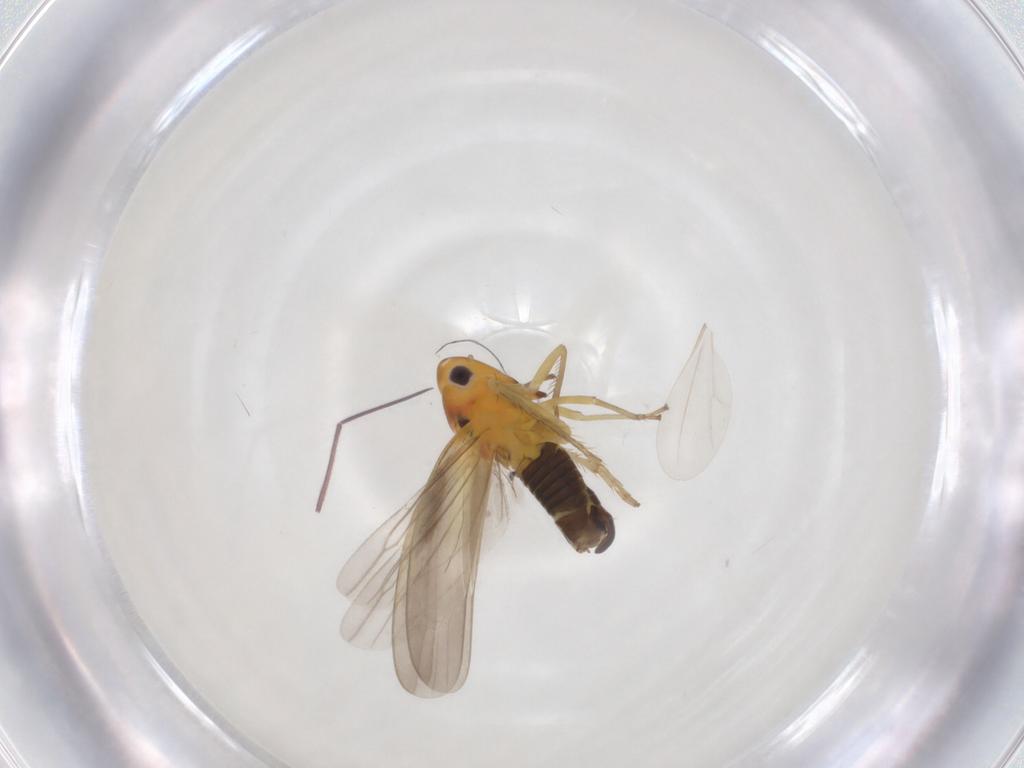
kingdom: Animalia
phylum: Arthropoda
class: Insecta
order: Hemiptera
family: Cicadellidae
